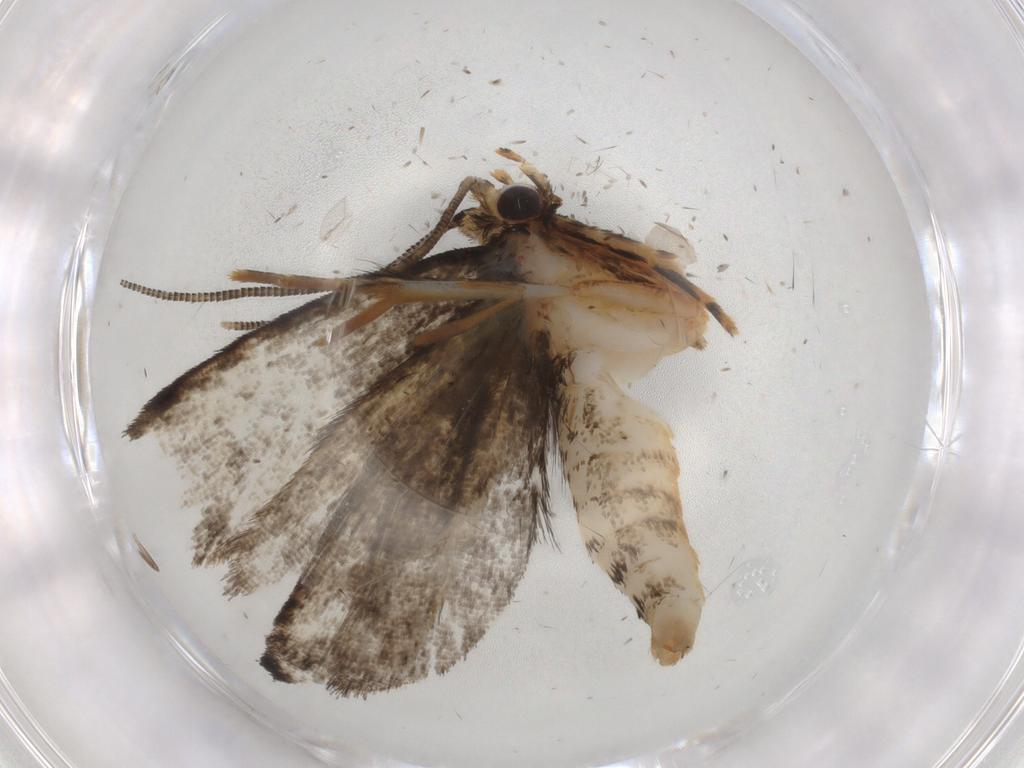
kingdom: Animalia
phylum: Arthropoda
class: Insecta
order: Lepidoptera
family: Tineidae
